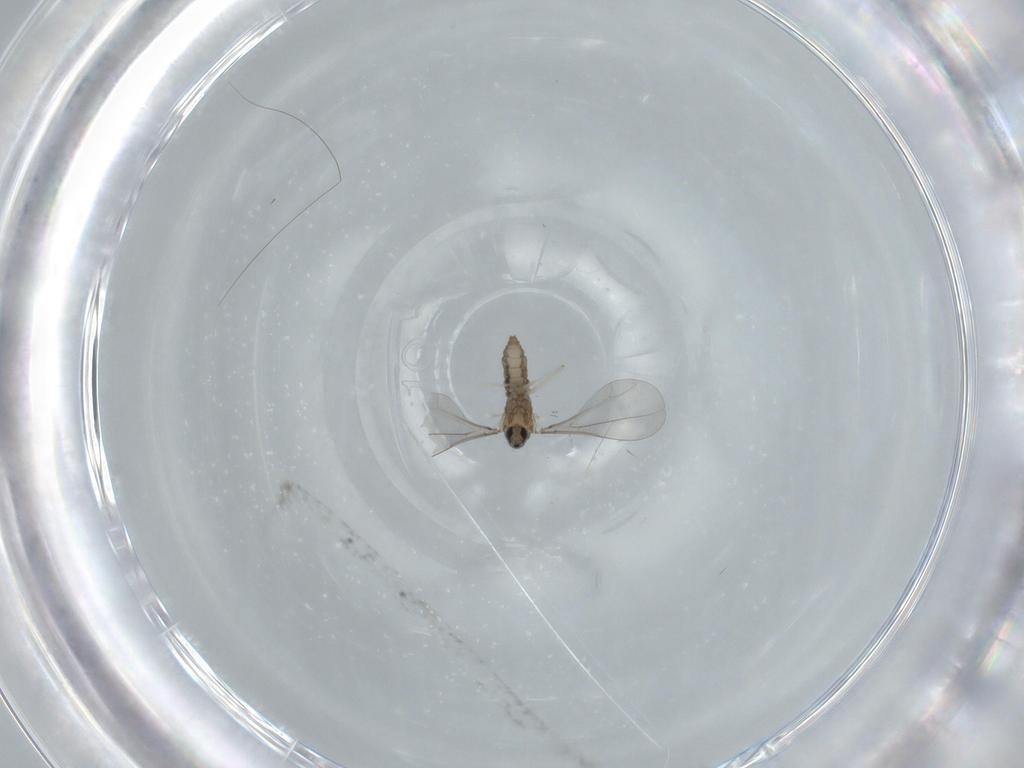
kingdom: Animalia
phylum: Arthropoda
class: Insecta
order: Diptera
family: Cecidomyiidae
